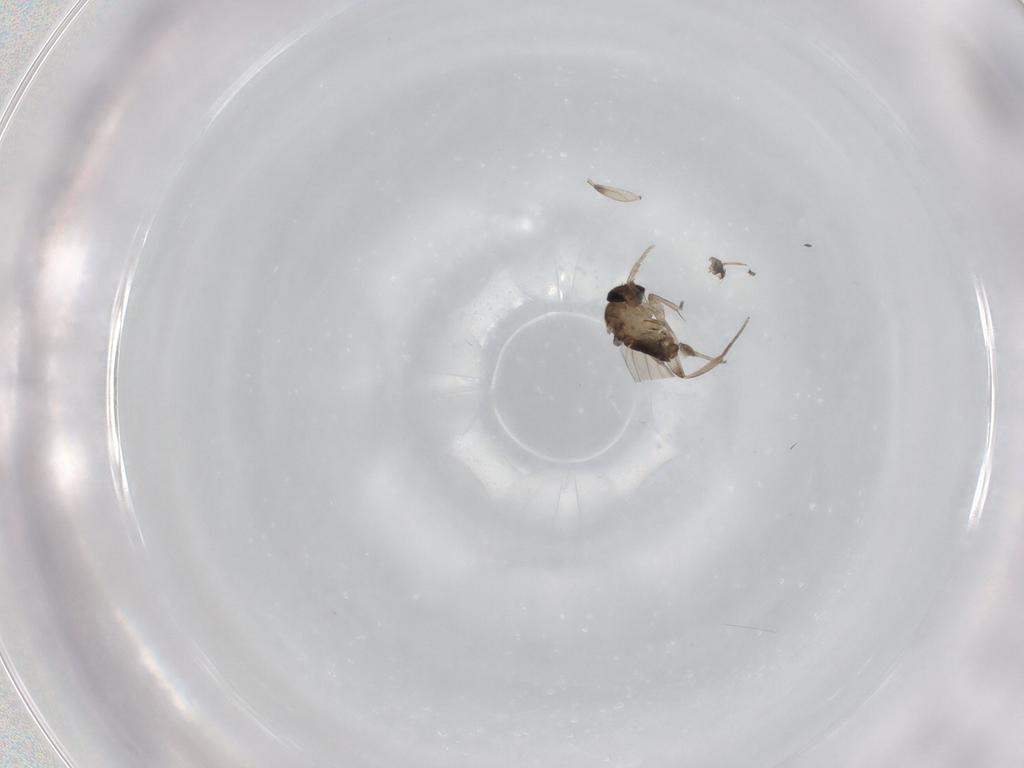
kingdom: Animalia
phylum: Arthropoda
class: Insecta
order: Diptera
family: Phoridae
